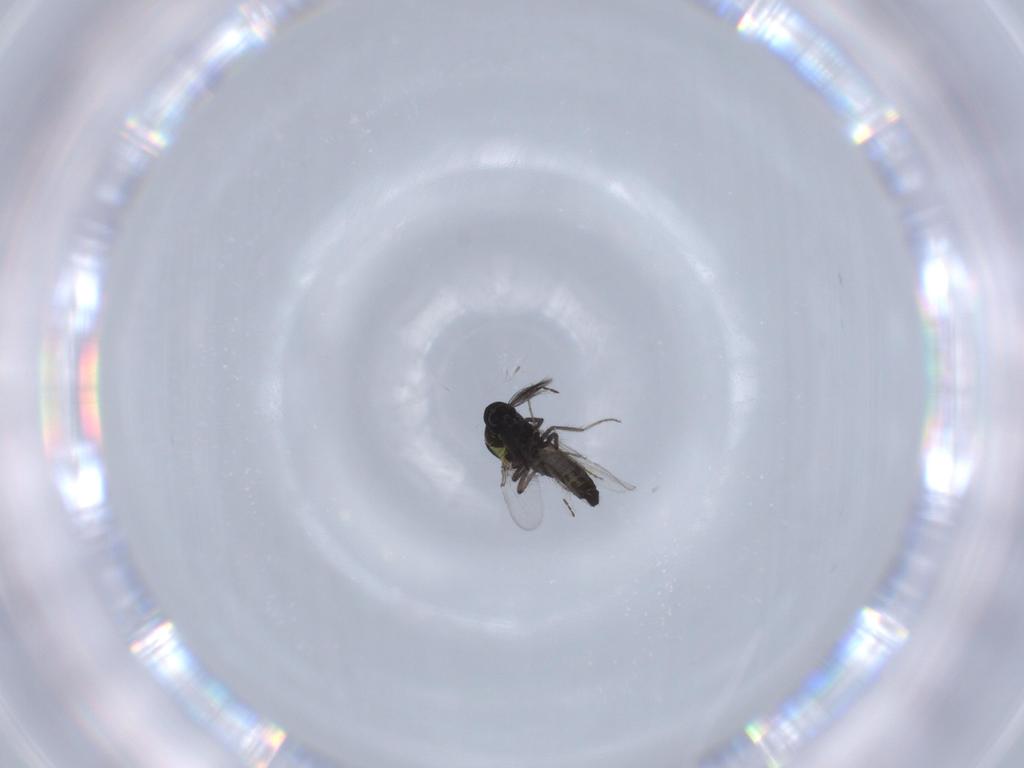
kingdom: Animalia
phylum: Arthropoda
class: Insecta
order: Diptera
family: Ceratopogonidae
